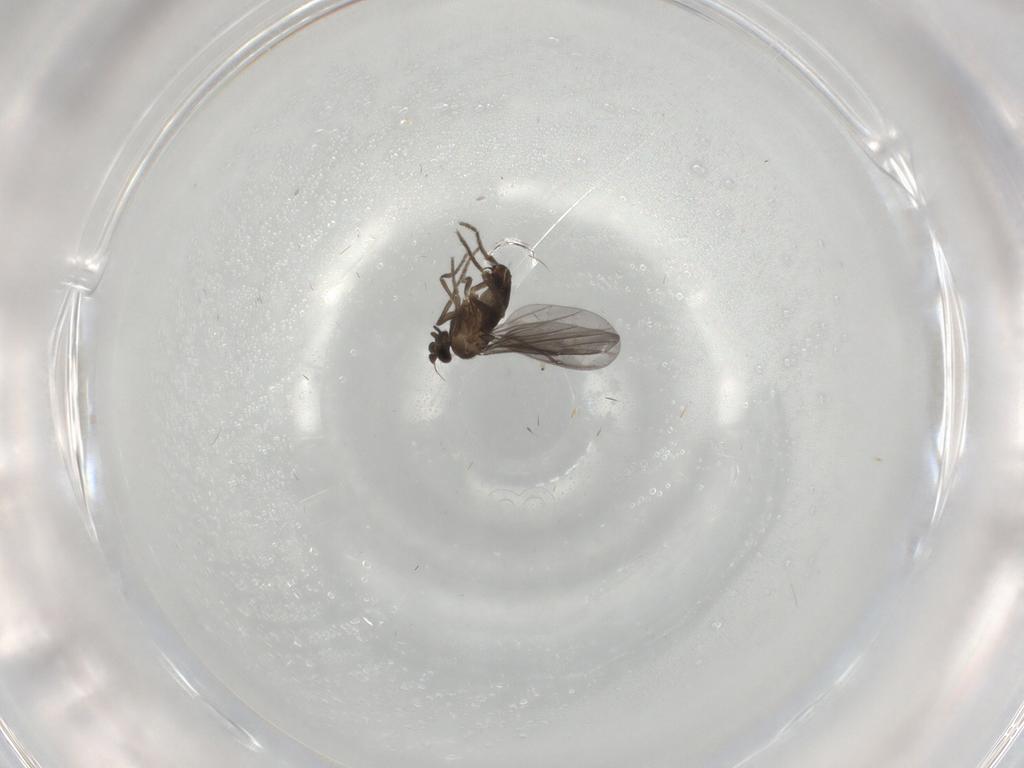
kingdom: Animalia
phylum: Arthropoda
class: Insecta
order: Diptera
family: Phoridae
